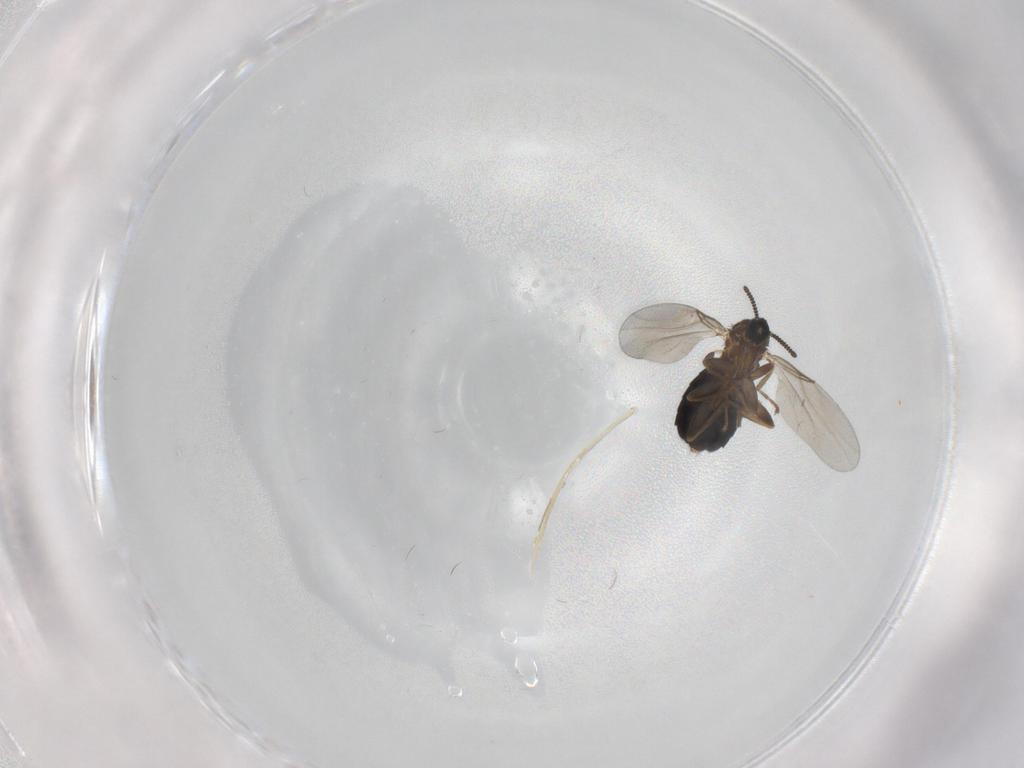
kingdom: Animalia
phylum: Arthropoda
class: Insecta
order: Diptera
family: Scatopsidae
